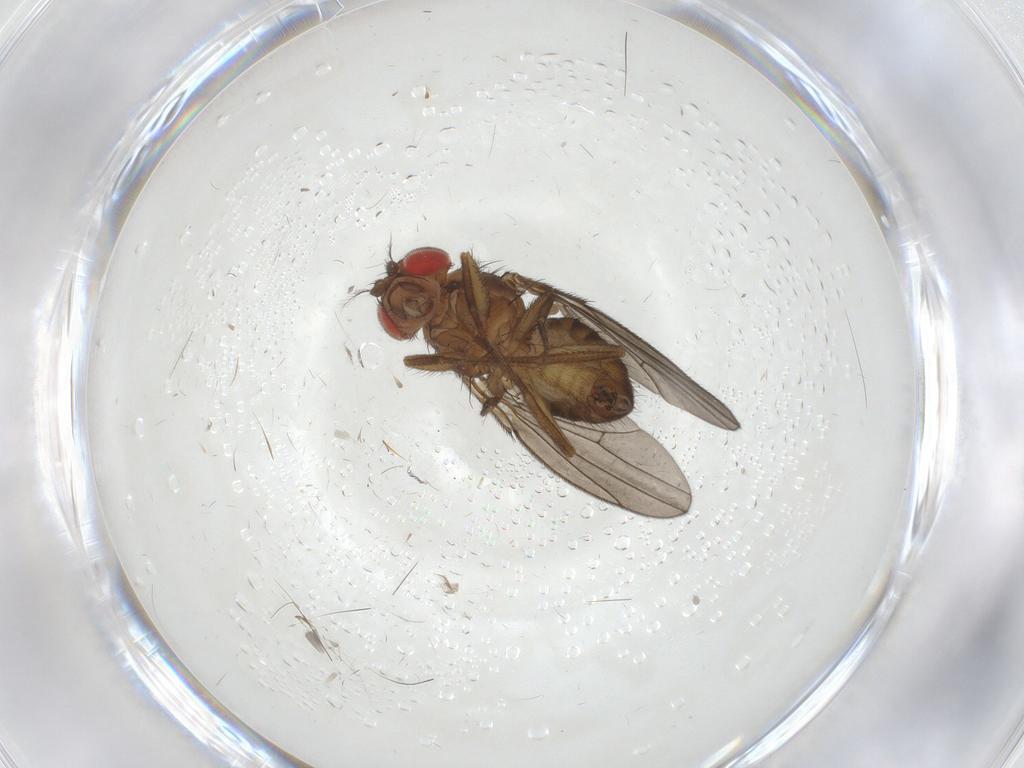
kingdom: Animalia
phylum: Arthropoda
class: Insecta
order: Diptera
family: Drosophilidae
